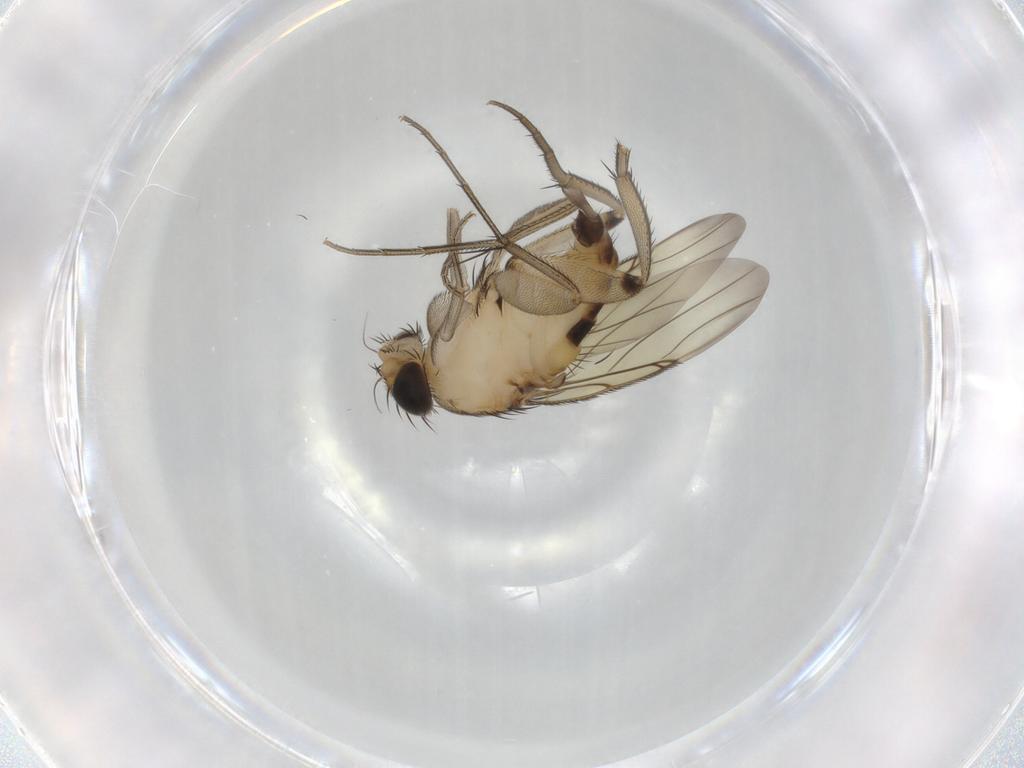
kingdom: Animalia
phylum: Arthropoda
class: Insecta
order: Diptera
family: Phoridae
